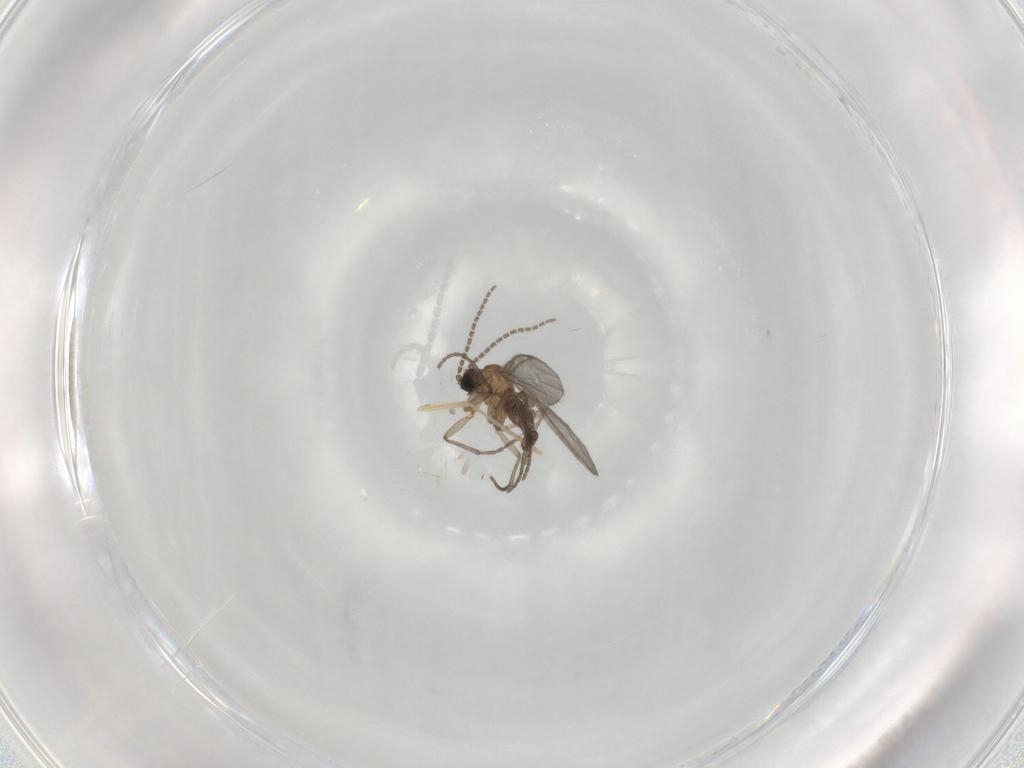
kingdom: Animalia
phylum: Arthropoda
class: Insecta
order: Diptera
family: Sciaridae
